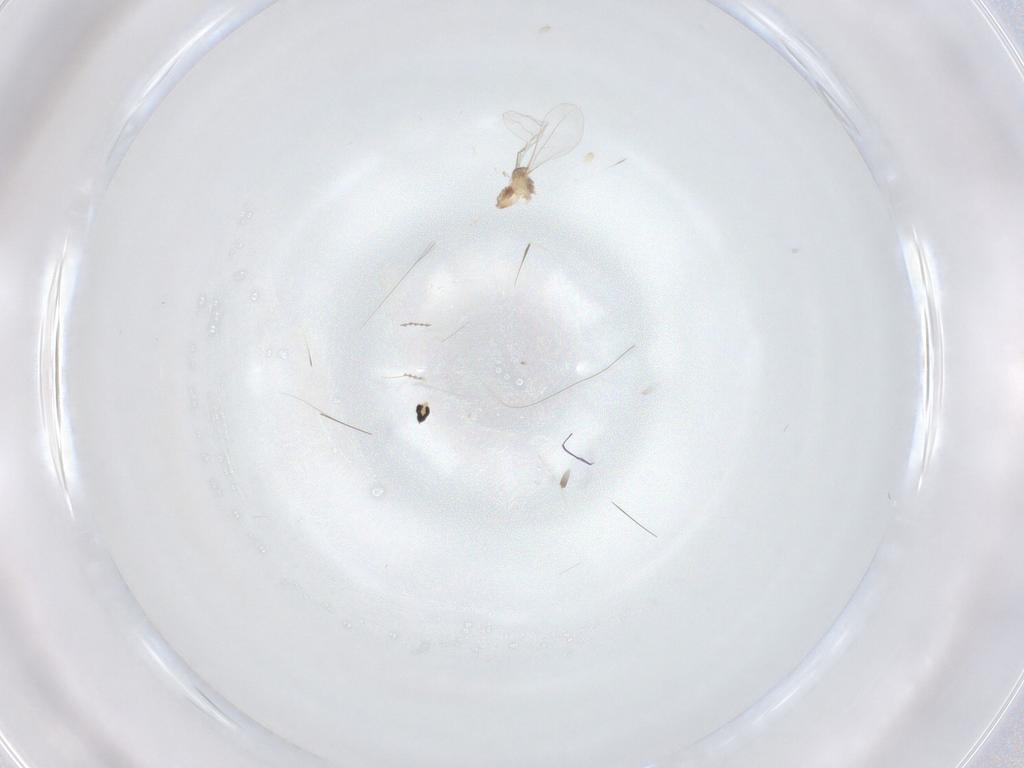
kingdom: Animalia
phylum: Arthropoda
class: Insecta
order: Diptera
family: Cecidomyiidae
